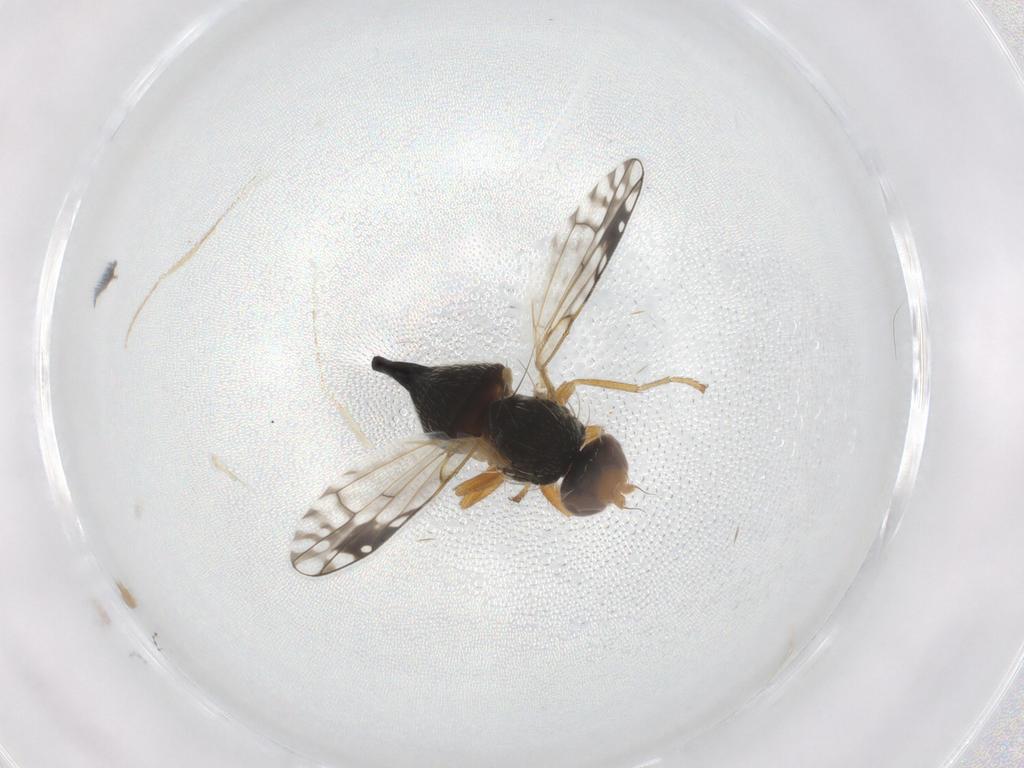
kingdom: Animalia
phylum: Arthropoda
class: Insecta
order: Diptera
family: Tephritidae
